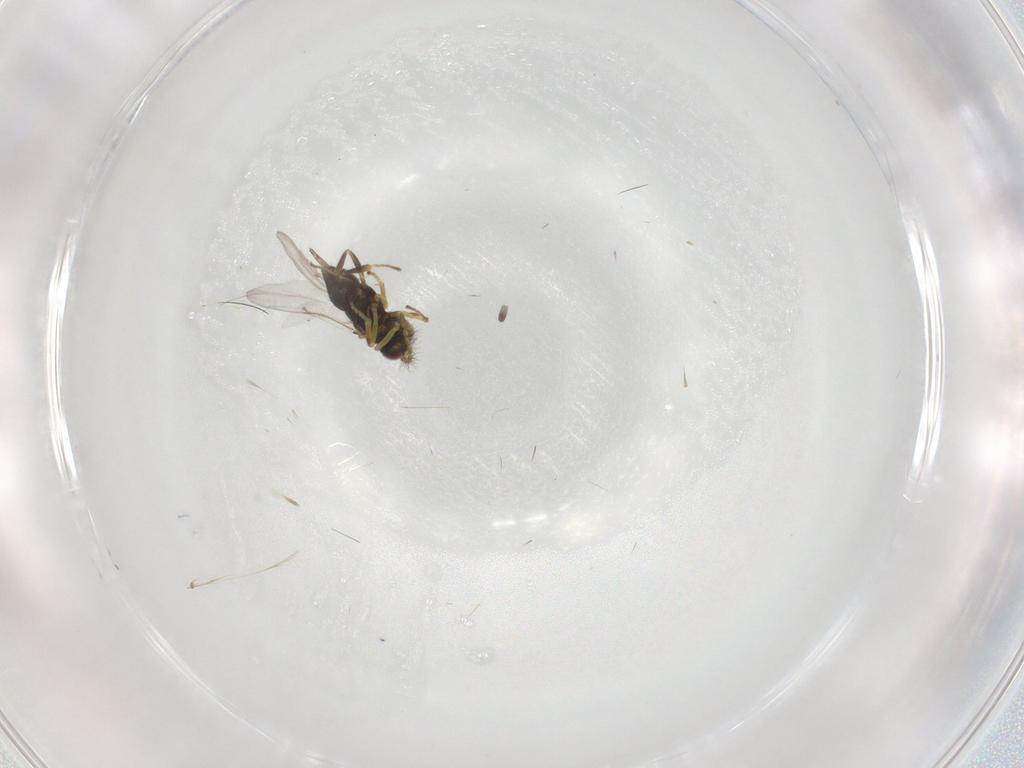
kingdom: Animalia
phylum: Arthropoda
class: Insecta
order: Hymenoptera
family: Encyrtidae
